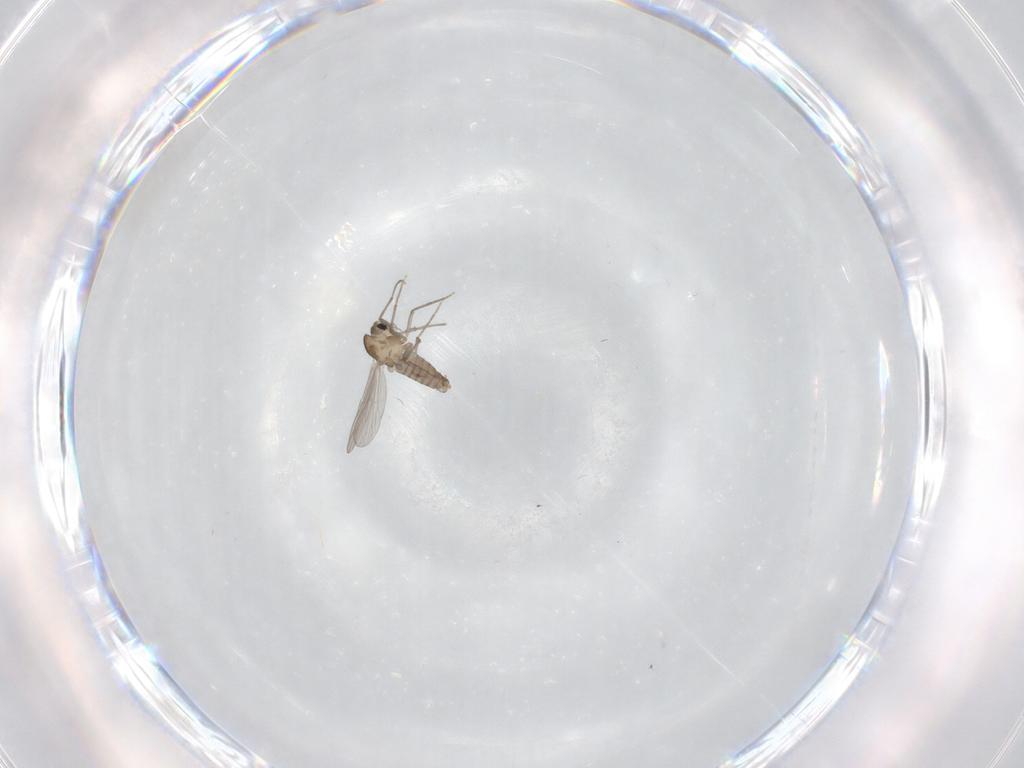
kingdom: Animalia
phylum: Arthropoda
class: Insecta
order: Diptera
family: Chironomidae
